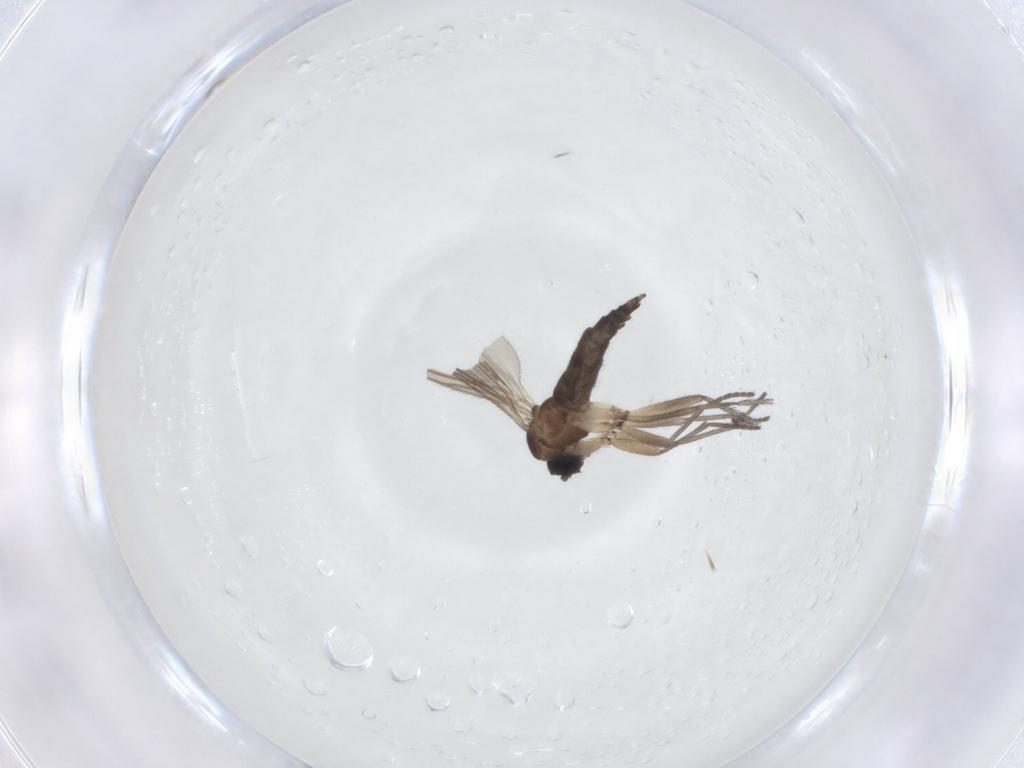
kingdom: Animalia
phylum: Arthropoda
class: Insecta
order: Diptera
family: Sciaridae
